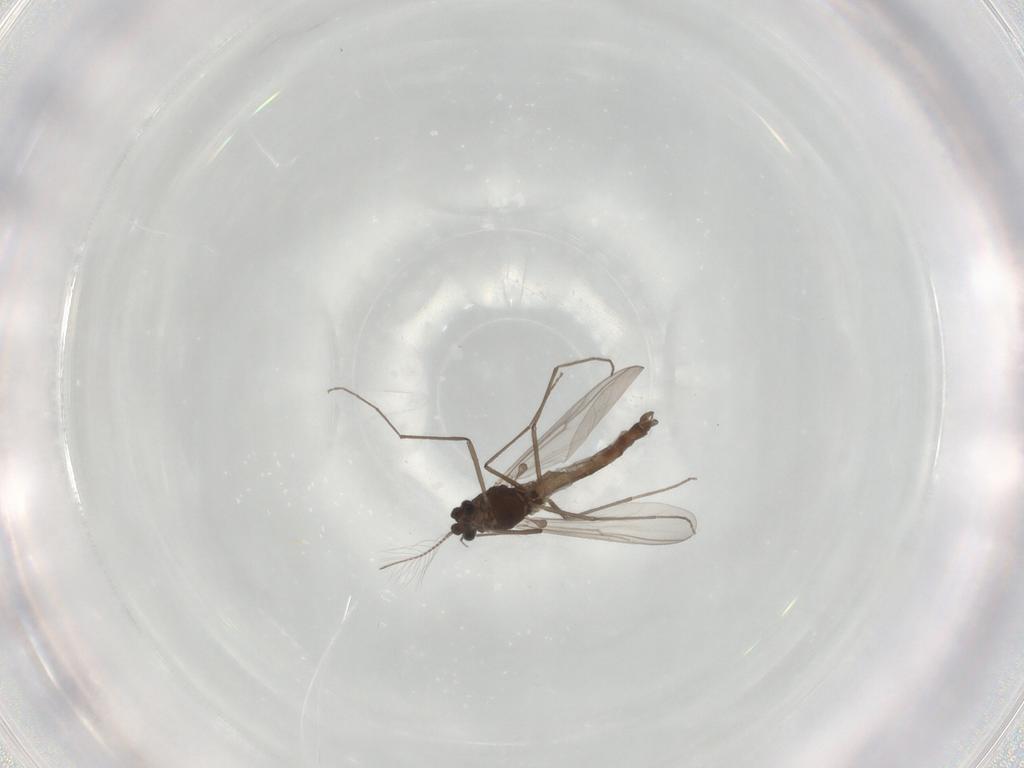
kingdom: Animalia
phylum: Arthropoda
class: Insecta
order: Diptera
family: Chironomidae
